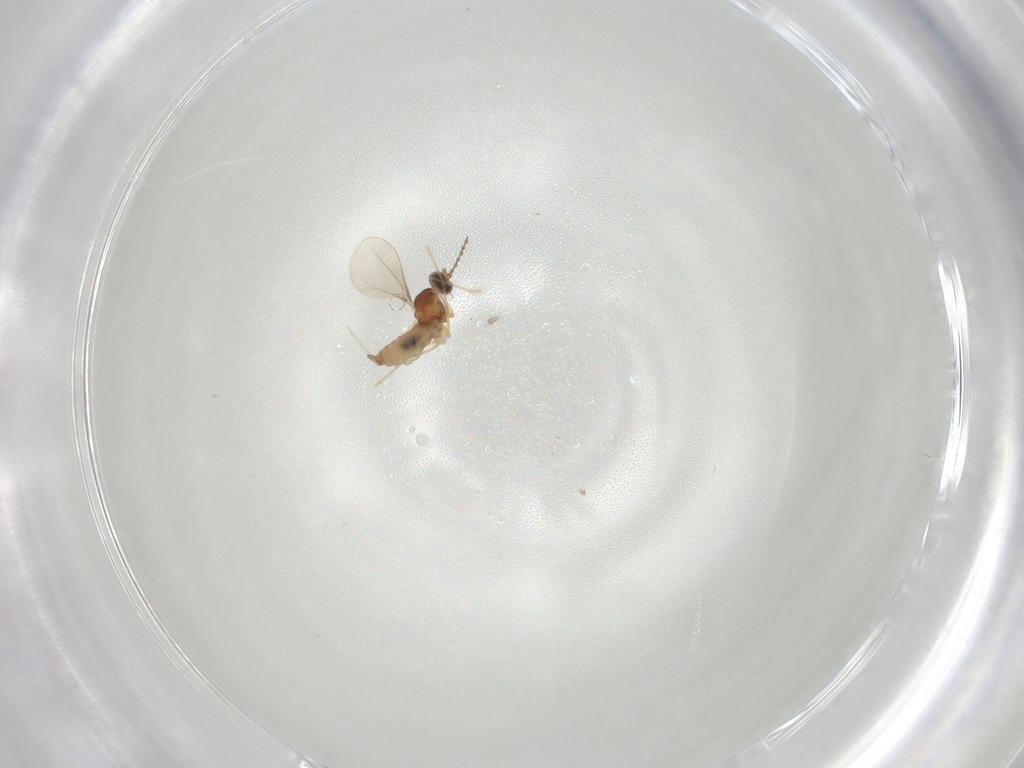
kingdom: Animalia
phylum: Arthropoda
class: Insecta
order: Diptera
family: Cecidomyiidae
